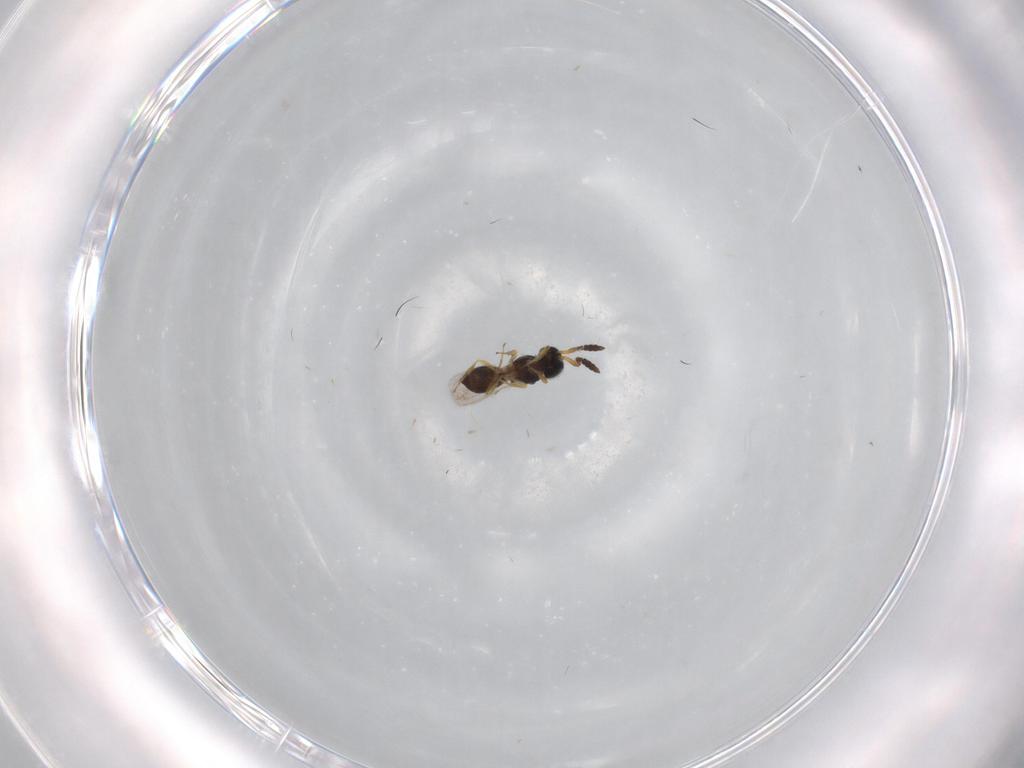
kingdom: Animalia
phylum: Arthropoda
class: Insecta
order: Hymenoptera
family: Scelionidae
